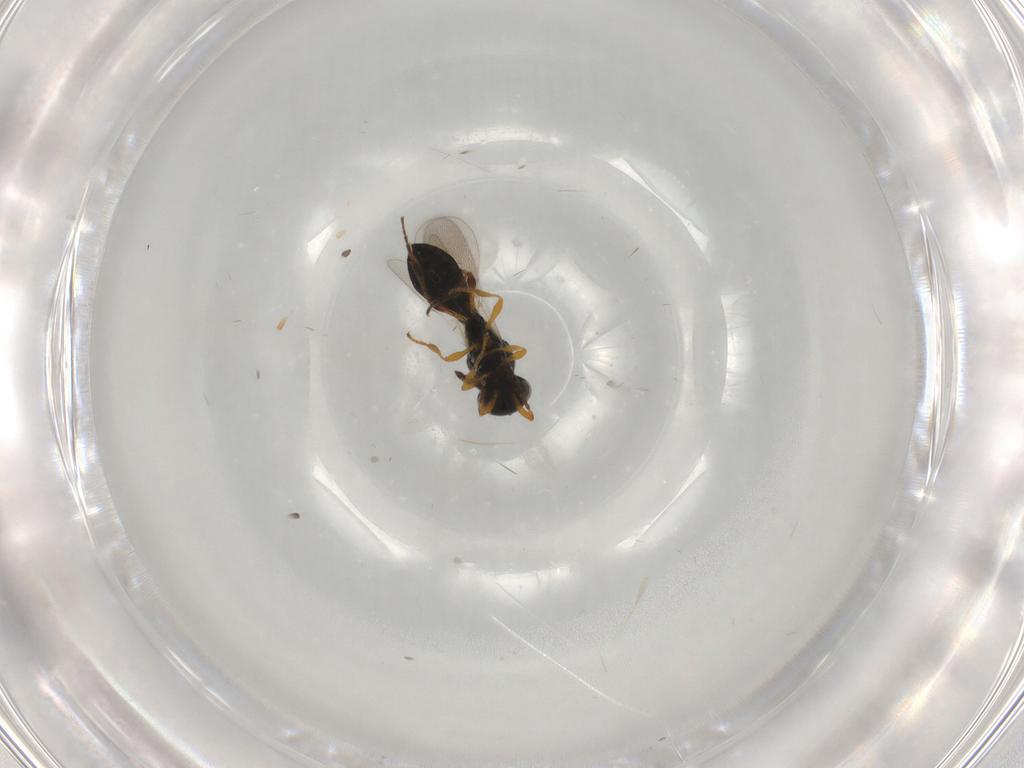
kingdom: Animalia
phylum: Arthropoda
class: Insecta
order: Hymenoptera
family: Platygastridae
